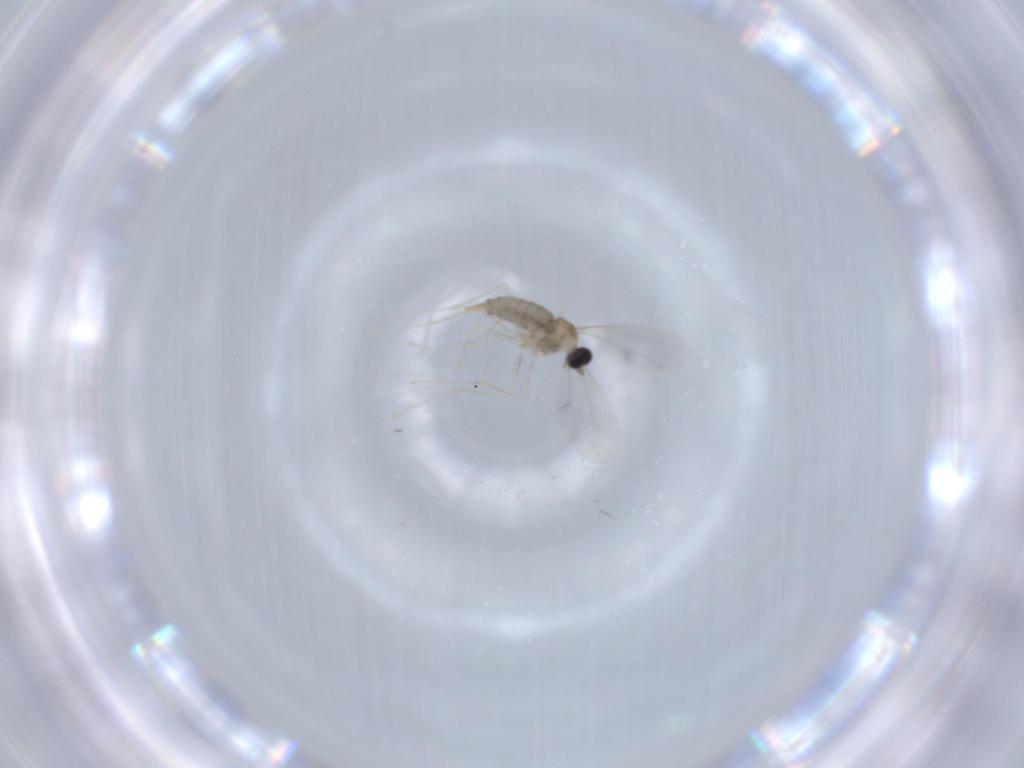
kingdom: Animalia
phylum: Arthropoda
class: Insecta
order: Diptera
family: Cecidomyiidae
